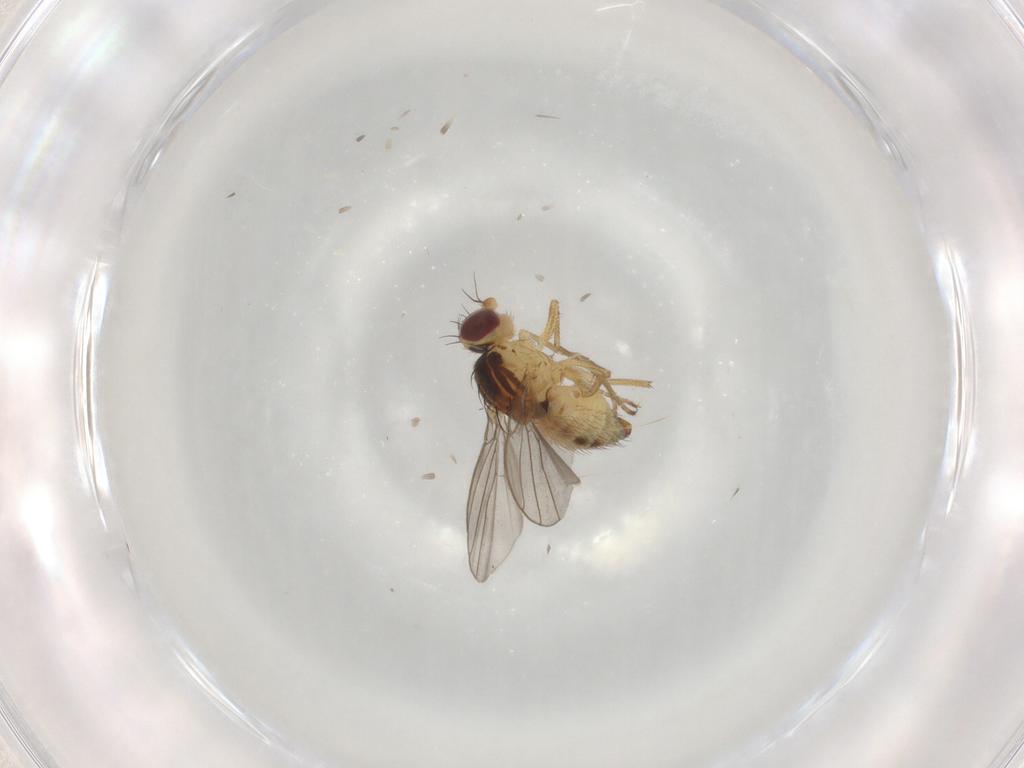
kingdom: Animalia
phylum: Arthropoda
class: Insecta
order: Diptera
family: Agromyzidae
